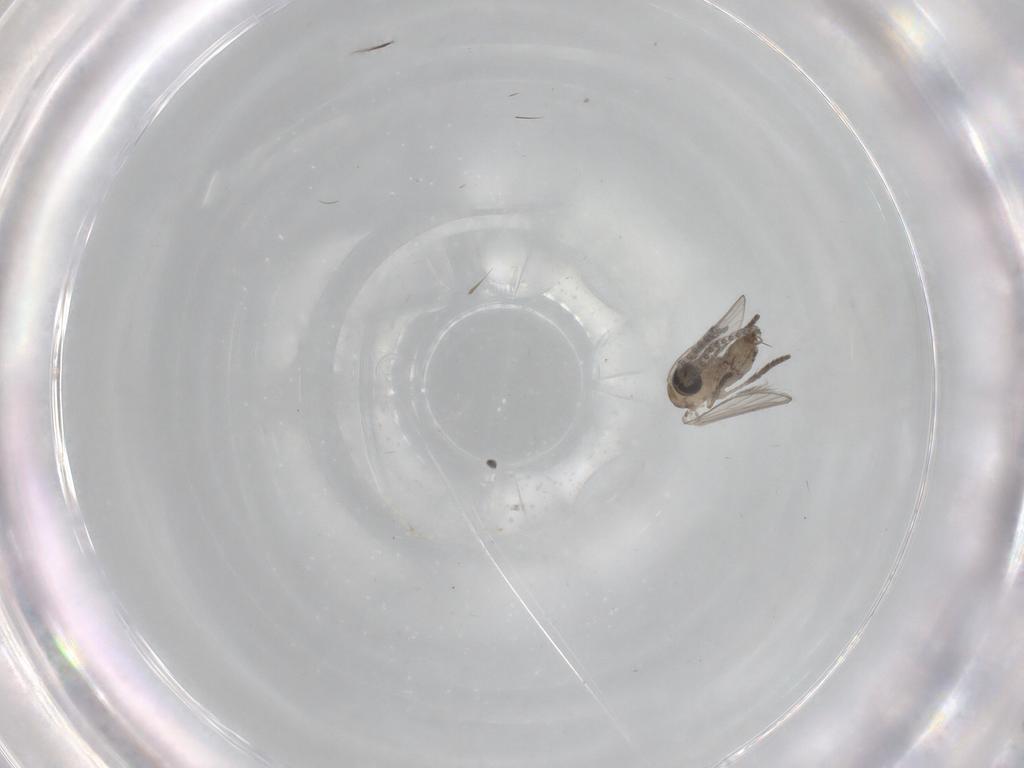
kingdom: Animalia
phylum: Arthropoda
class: Insecta
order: Diptera
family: Psychodidae
